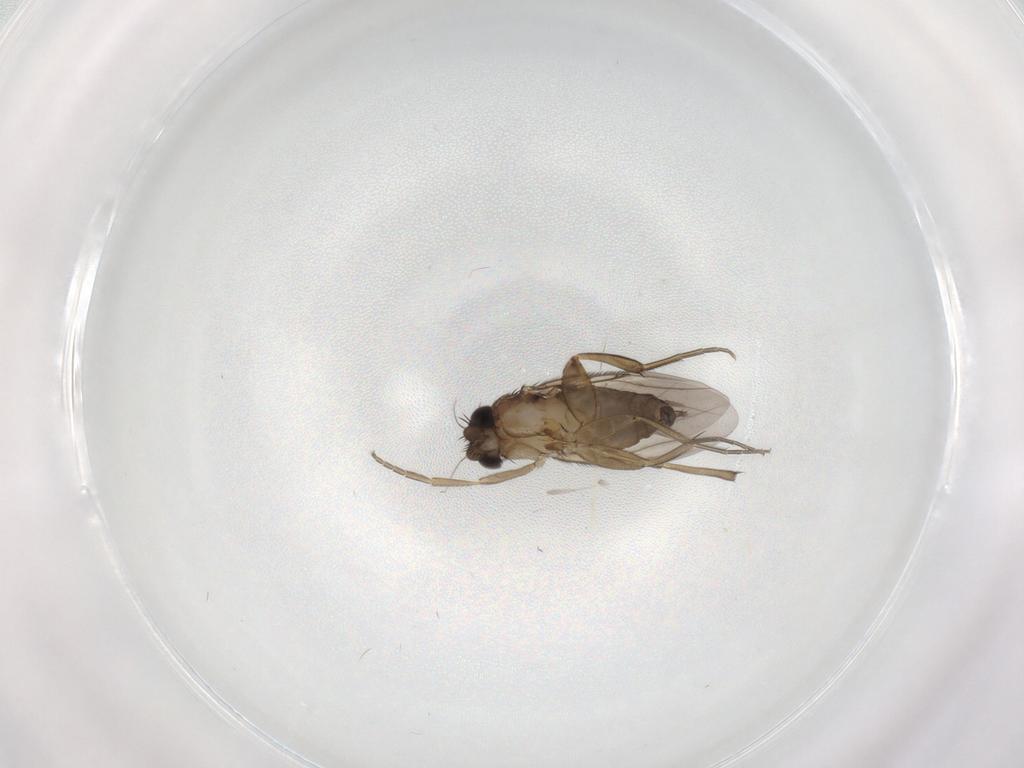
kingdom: Animalia
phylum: Arthropoda
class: Insecta
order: Diptera
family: Phoridae
